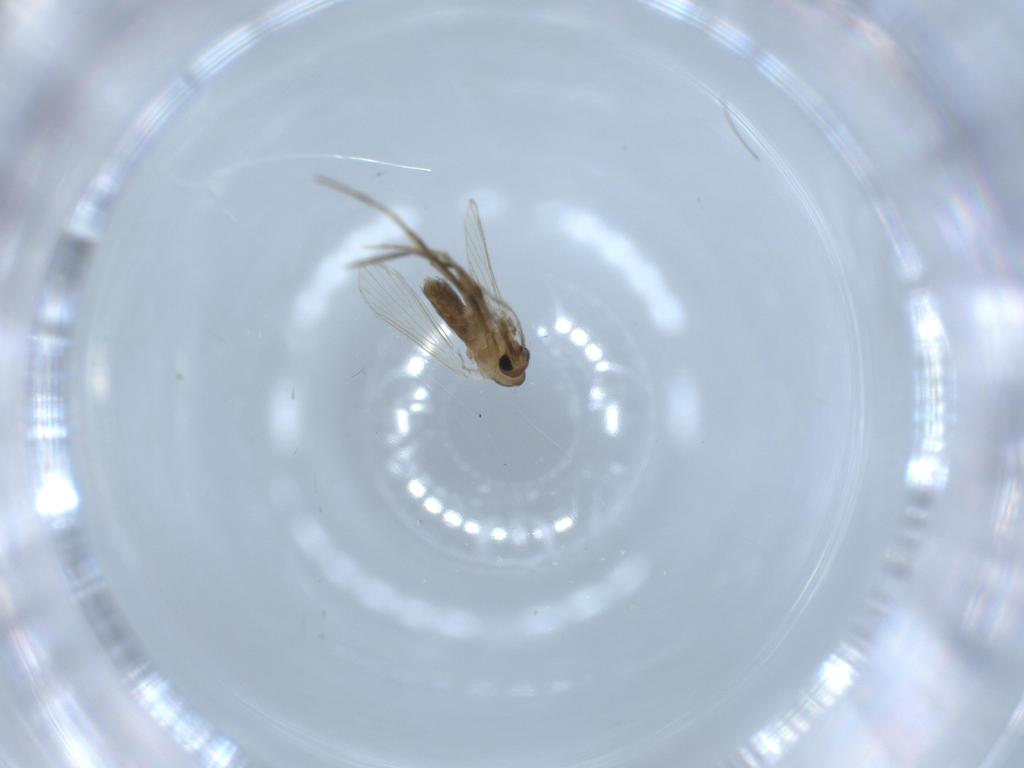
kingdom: Animalia
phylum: Arthropoda
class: Insecta
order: Diptera
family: Psychodidae
